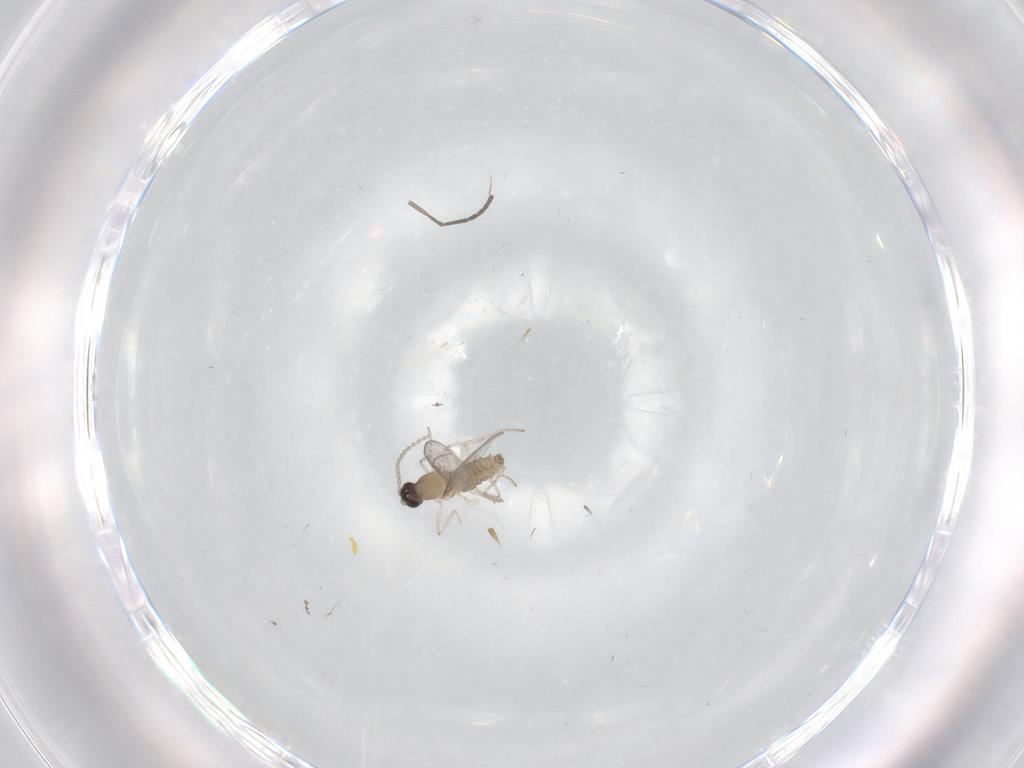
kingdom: Animalia
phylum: Arthropoda
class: Insecta
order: Diptera
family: Cecidomyiidae
